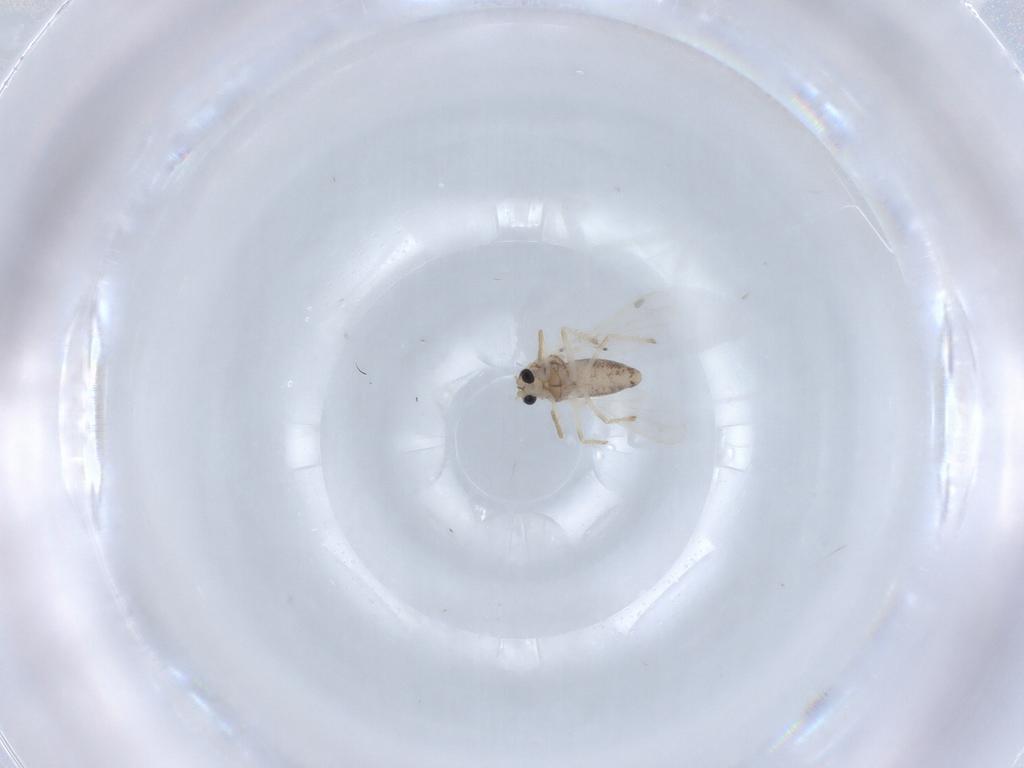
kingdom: Animalia
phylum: Arthropoda
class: Insecta
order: Diptera
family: Chironomidae
